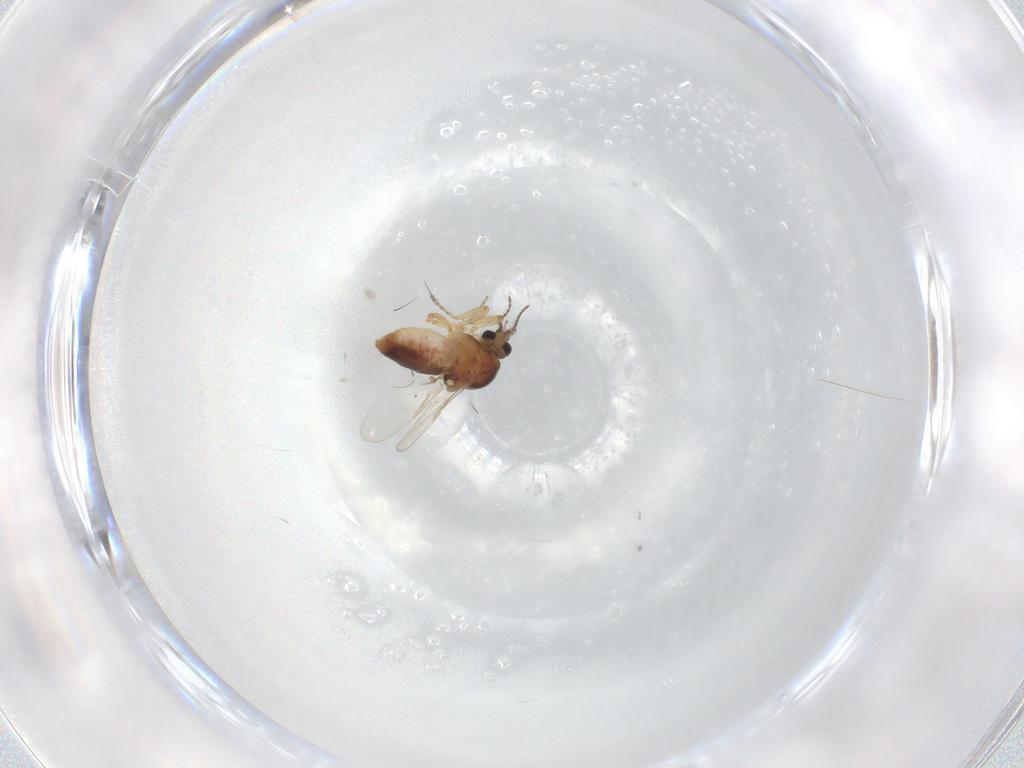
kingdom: Animalia
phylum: Arthropoda
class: Insecta
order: Diptera
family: Ceratopogonidae
